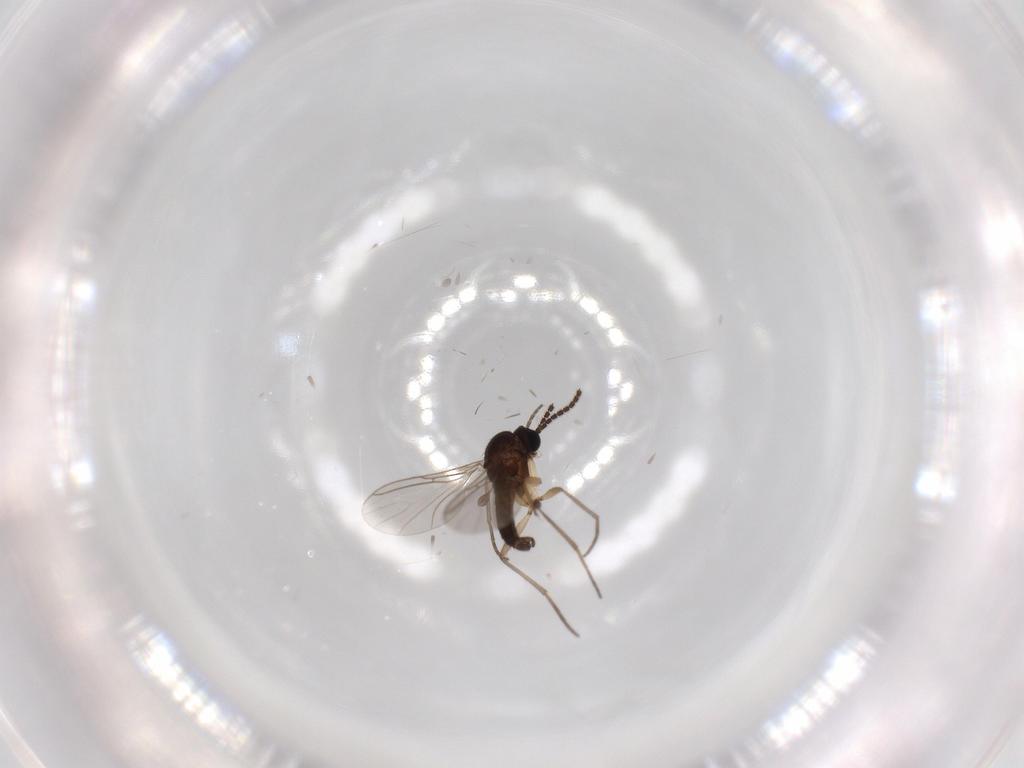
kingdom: Animalia
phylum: Arthropoda
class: Insecta
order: Diptera
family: Sciaridae
